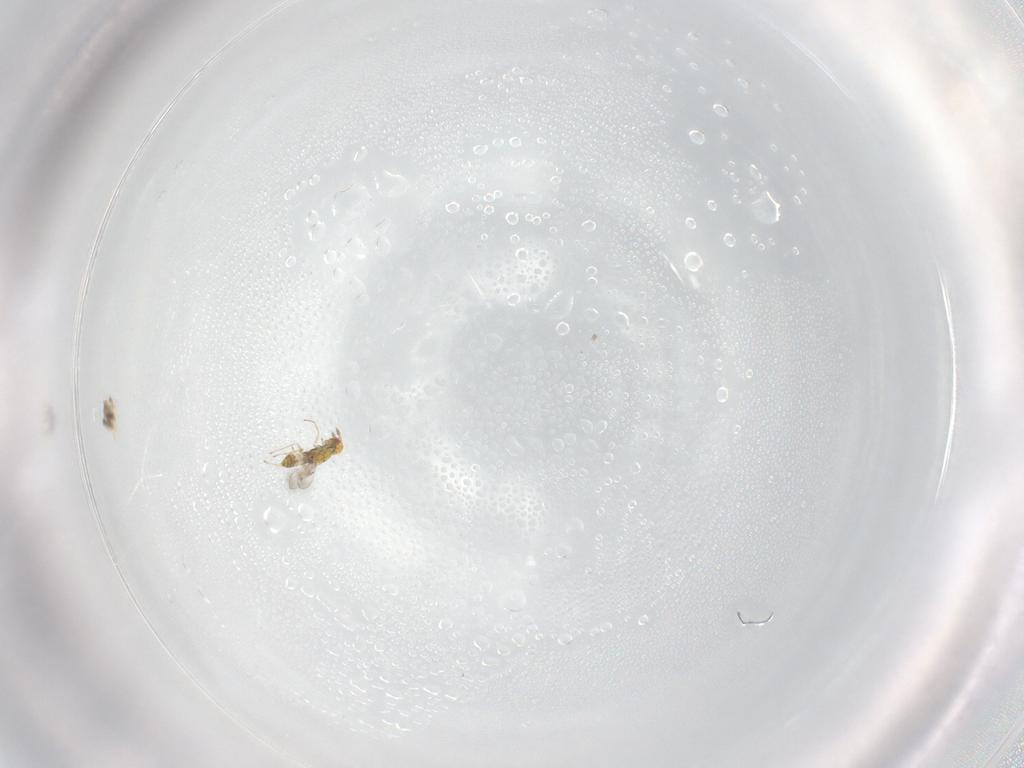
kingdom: Animalia
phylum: Arthropoda
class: Insecta
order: Hymenoptera
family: Eulophidae
